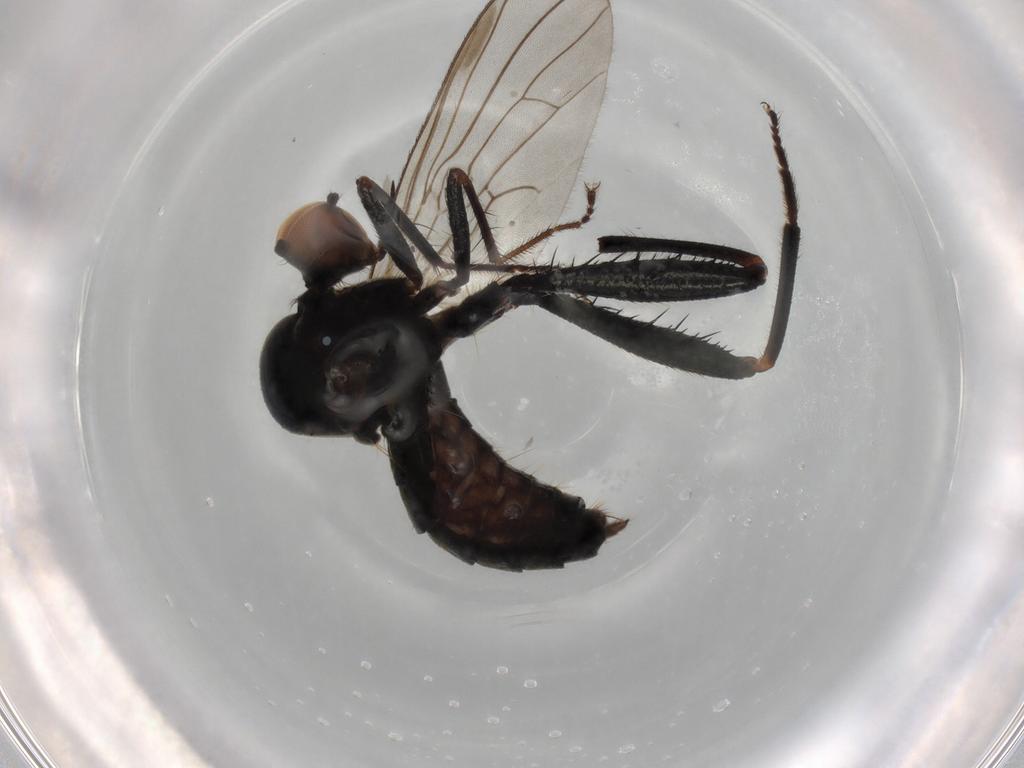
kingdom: Animalia
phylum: Arthropoda
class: Insecta
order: Diptera
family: Hybotidae
